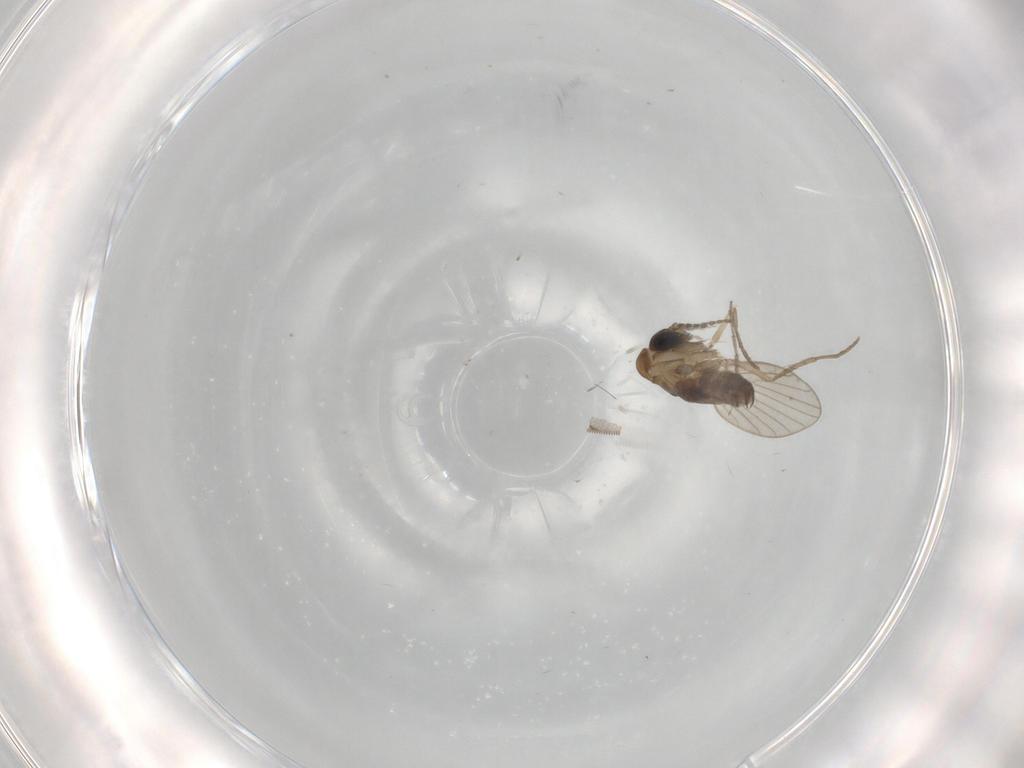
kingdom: Animalia
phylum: Arthropoda
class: Insecta
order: Diptera
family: Psychodidae
